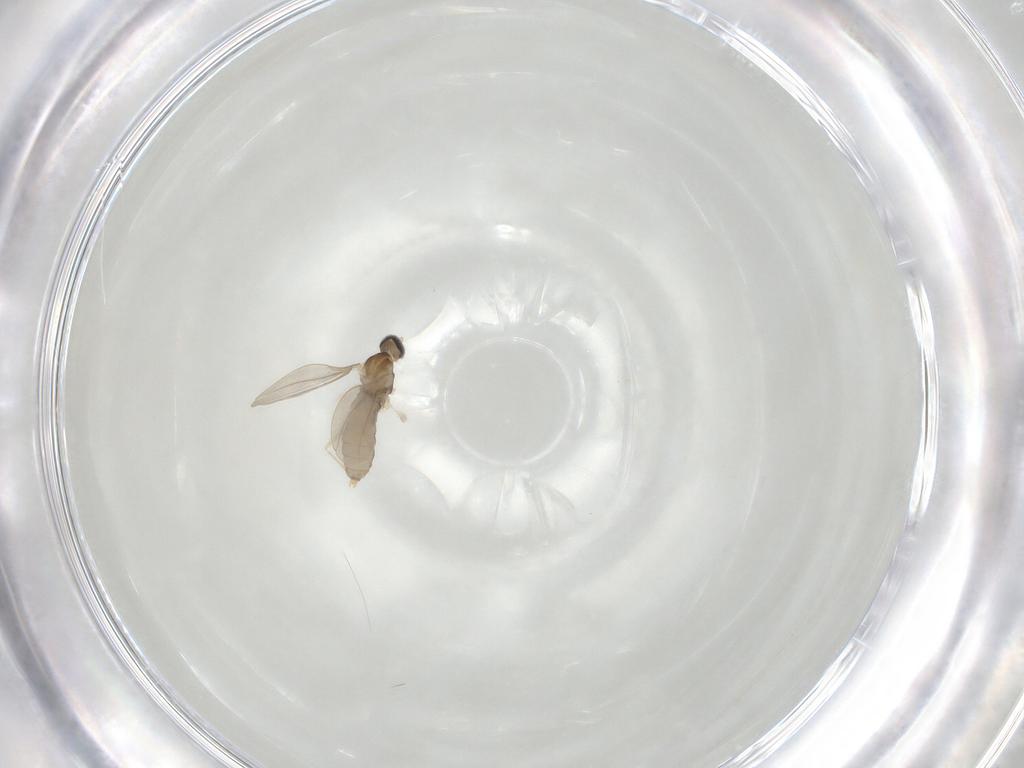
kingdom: Animalia
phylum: Arthropoda
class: Insecta
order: Diptera
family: Cecidomyiidae
